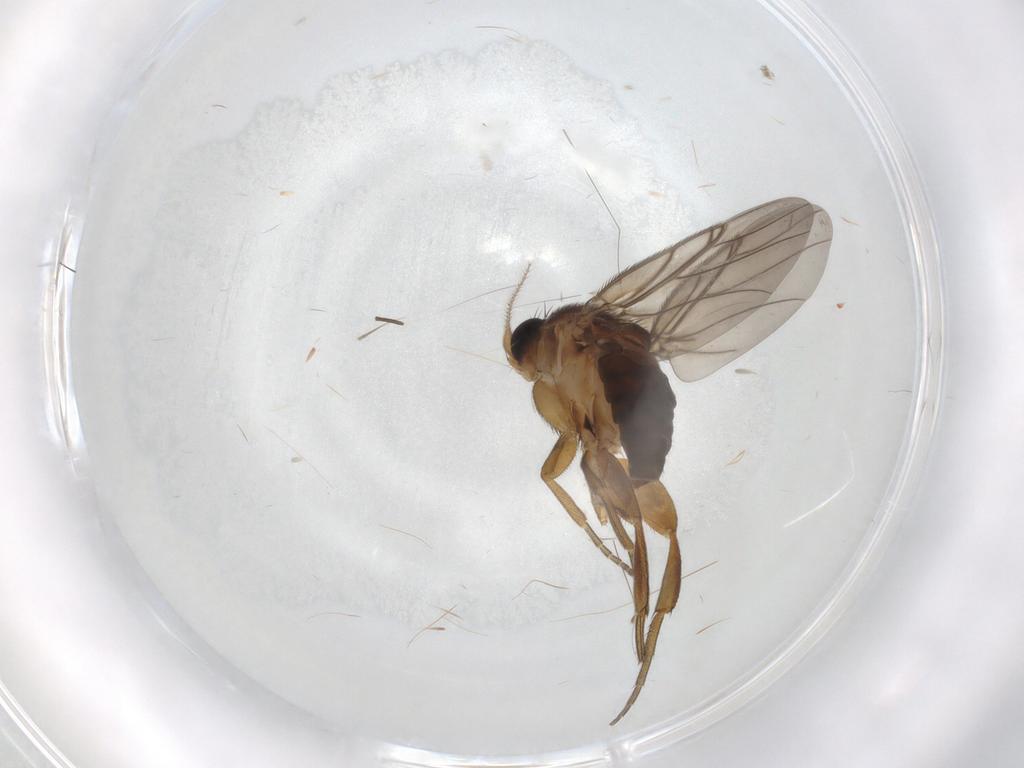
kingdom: Animalia
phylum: Arthropoda
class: Insecta
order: Diptera
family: Psychodidae
